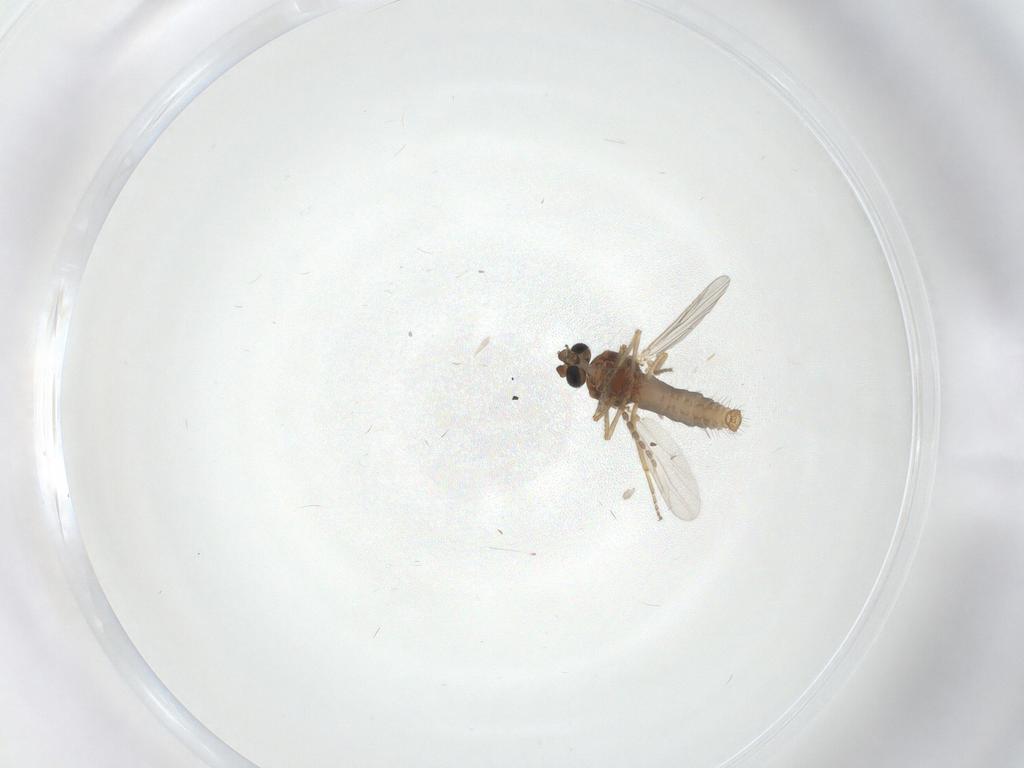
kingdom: Animalia
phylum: Arthropoda
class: Insecta
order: Diptera
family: Ceratopogonidae
